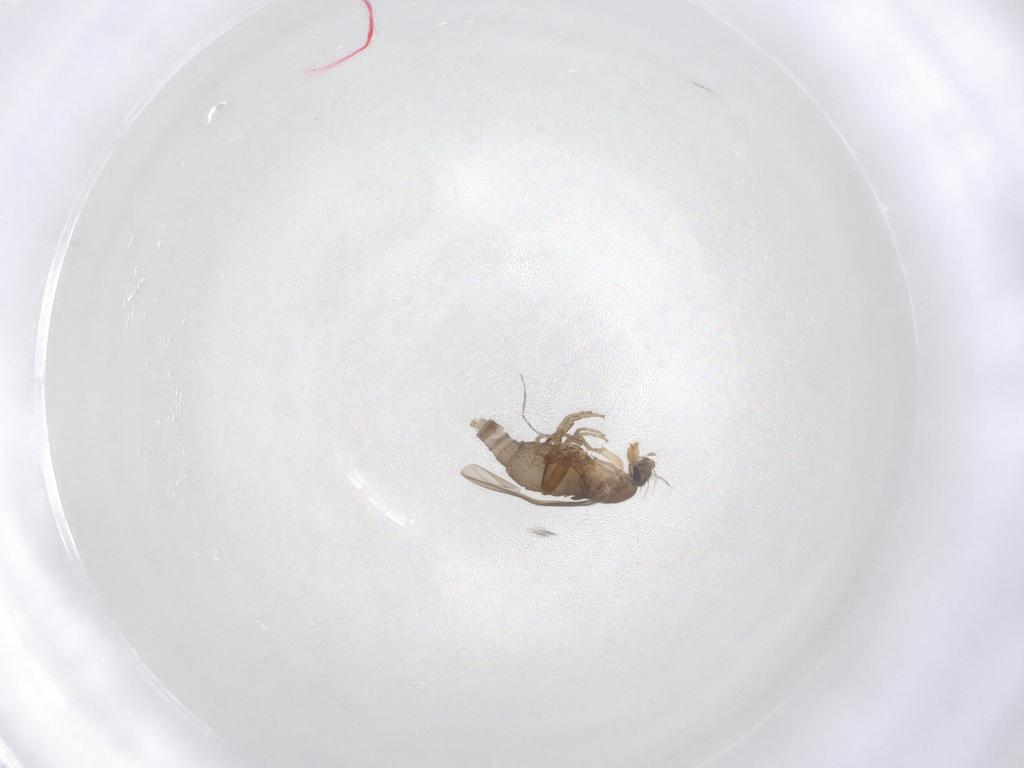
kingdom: Animalia
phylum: Arthropoda
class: Insecta
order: Diptera
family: Phoridae
